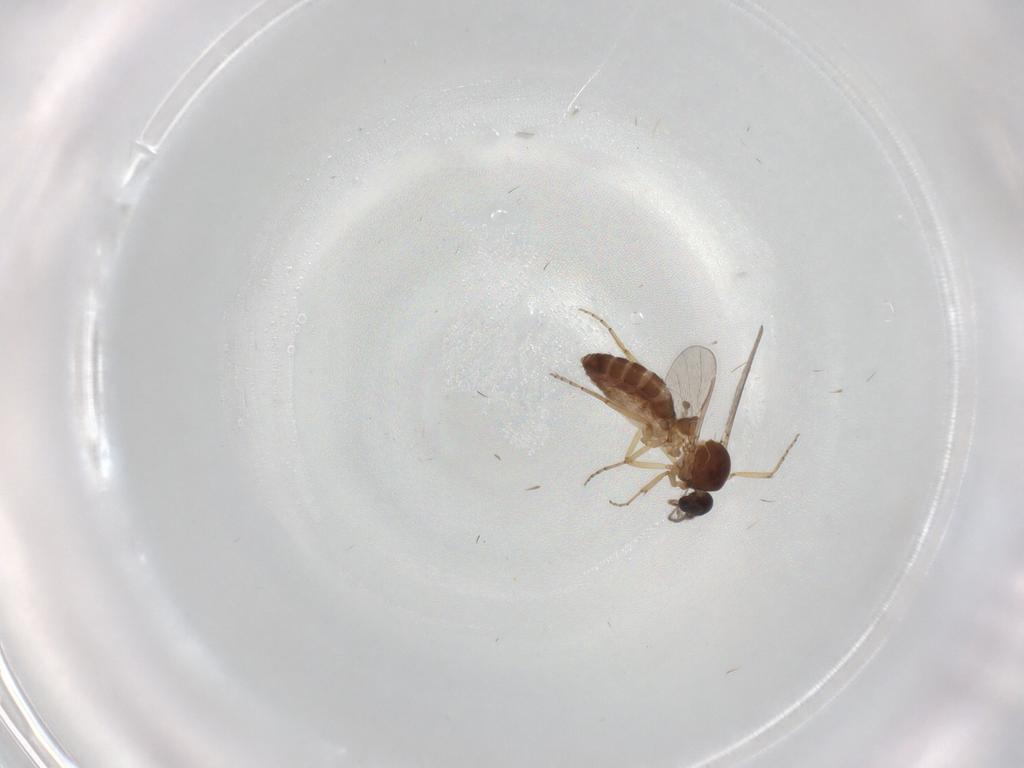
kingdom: Animalia
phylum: Arthropoda
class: Insecta
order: Diptera
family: Ceratopogonidae
